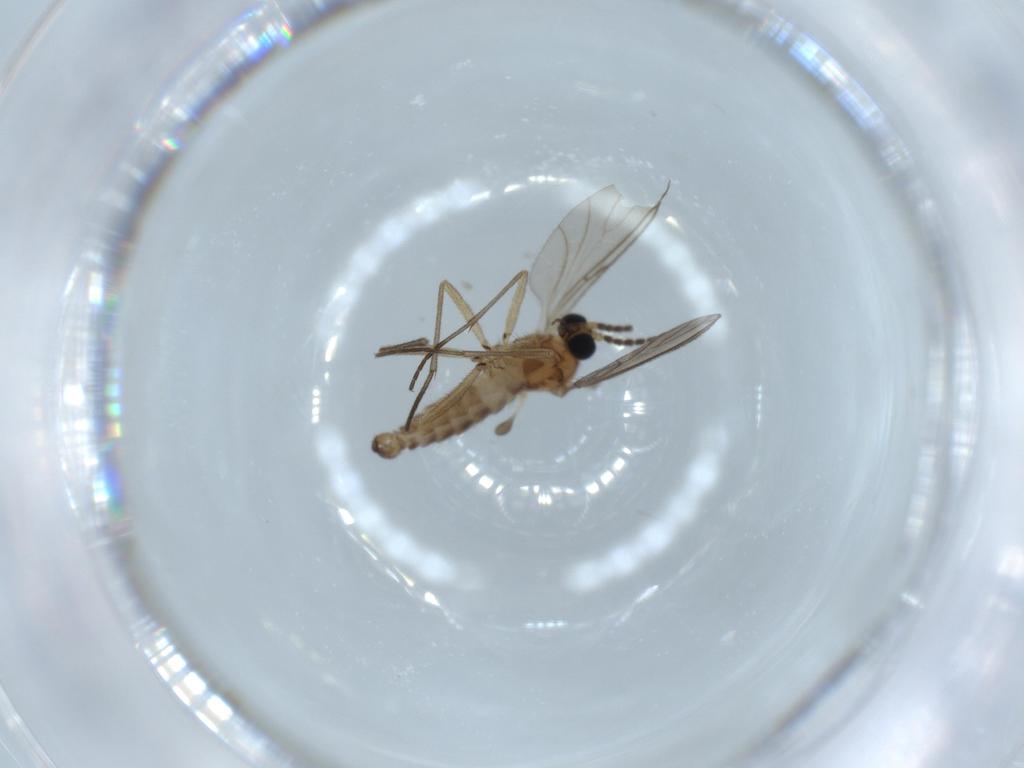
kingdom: Animalia
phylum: Arthropoda
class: Insecta
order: Diptera
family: Sciaridae
